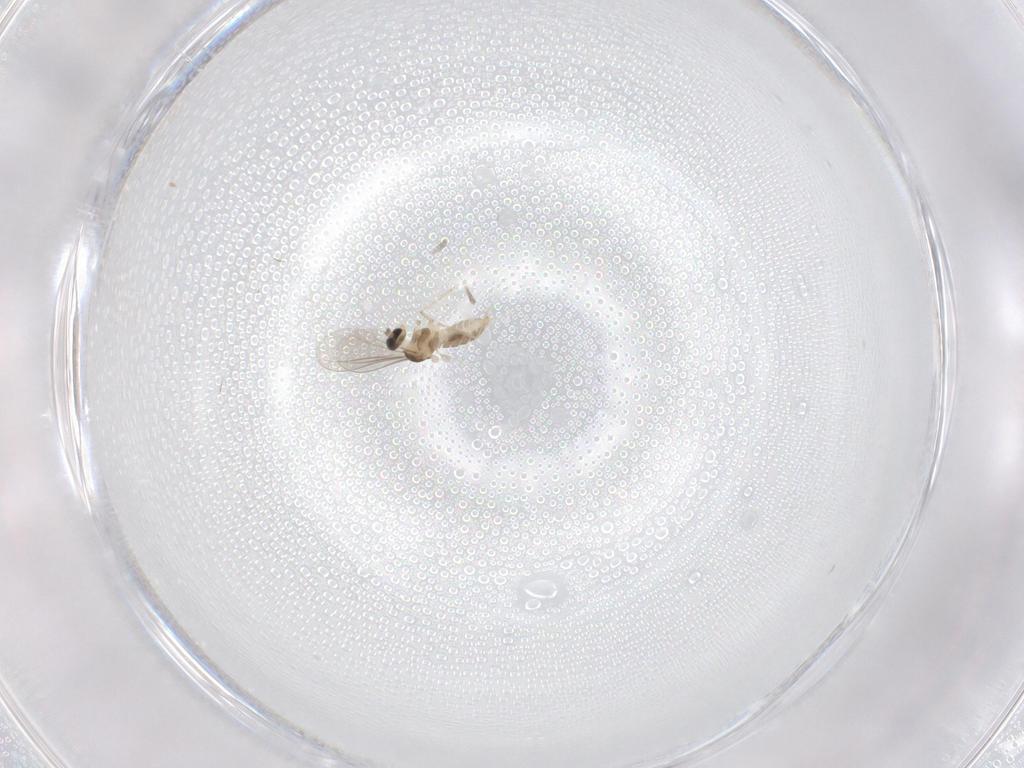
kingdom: Animalia
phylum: Arthropoda
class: Insecta
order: Diptera
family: Cecidomyiidae
